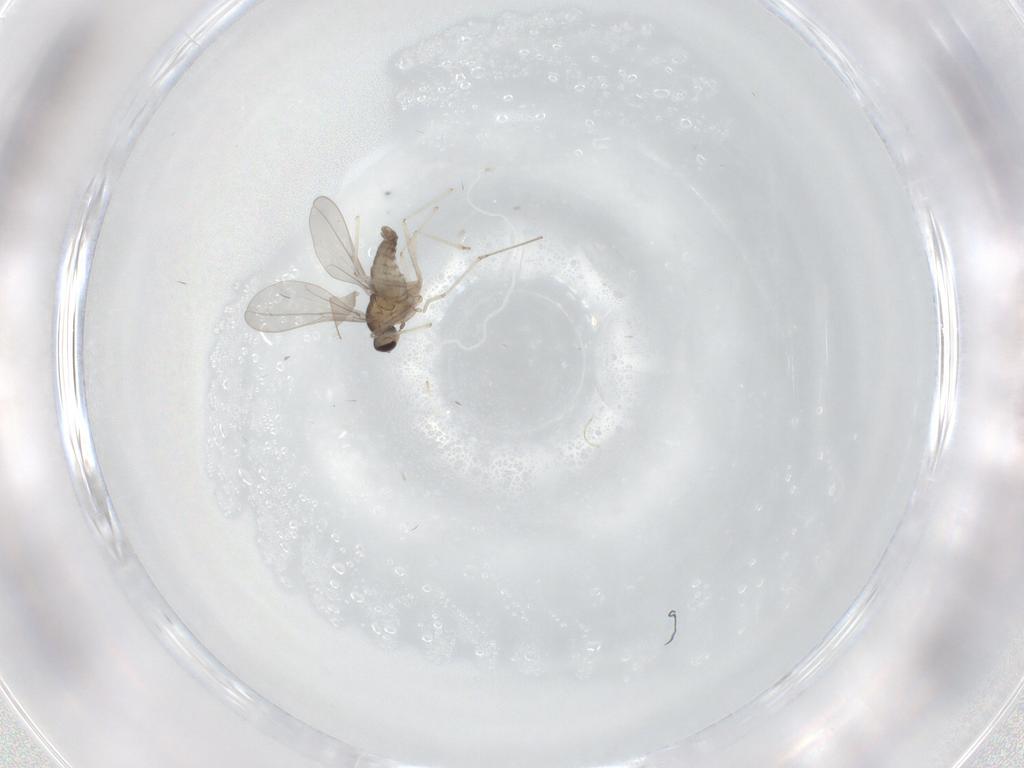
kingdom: Animalia
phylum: Arthropoda
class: Insecta
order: Diptera
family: Cecidomyiidae
